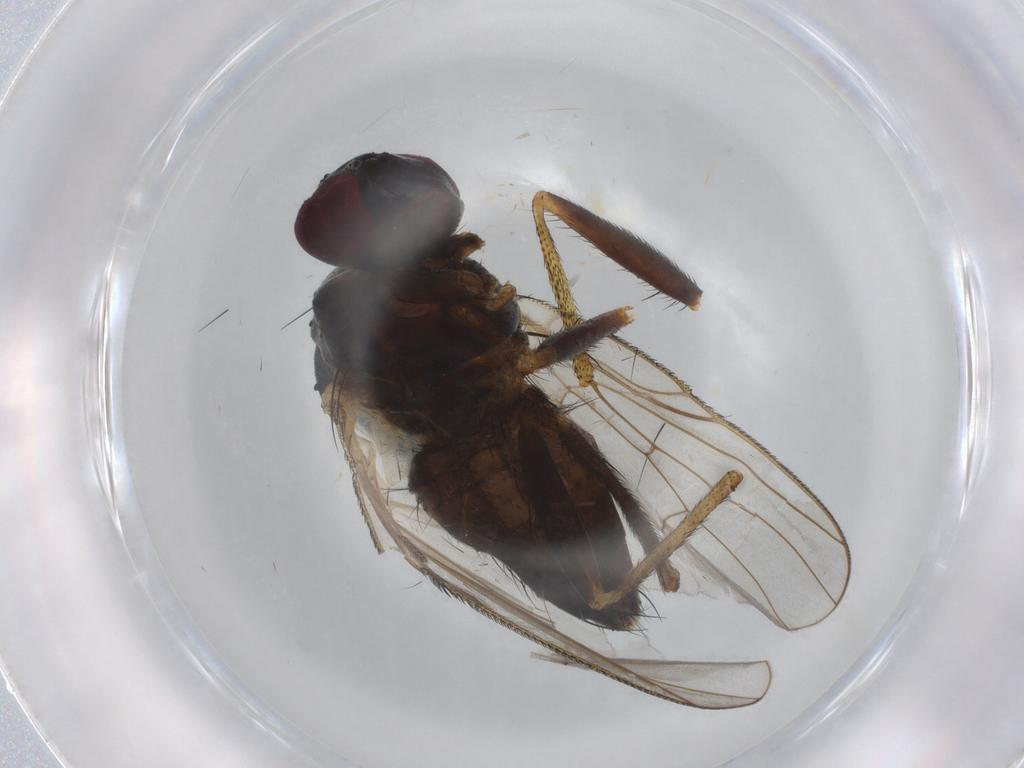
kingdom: Animalia
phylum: Arthropoda
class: Insecta
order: Diptera
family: Muscidae
